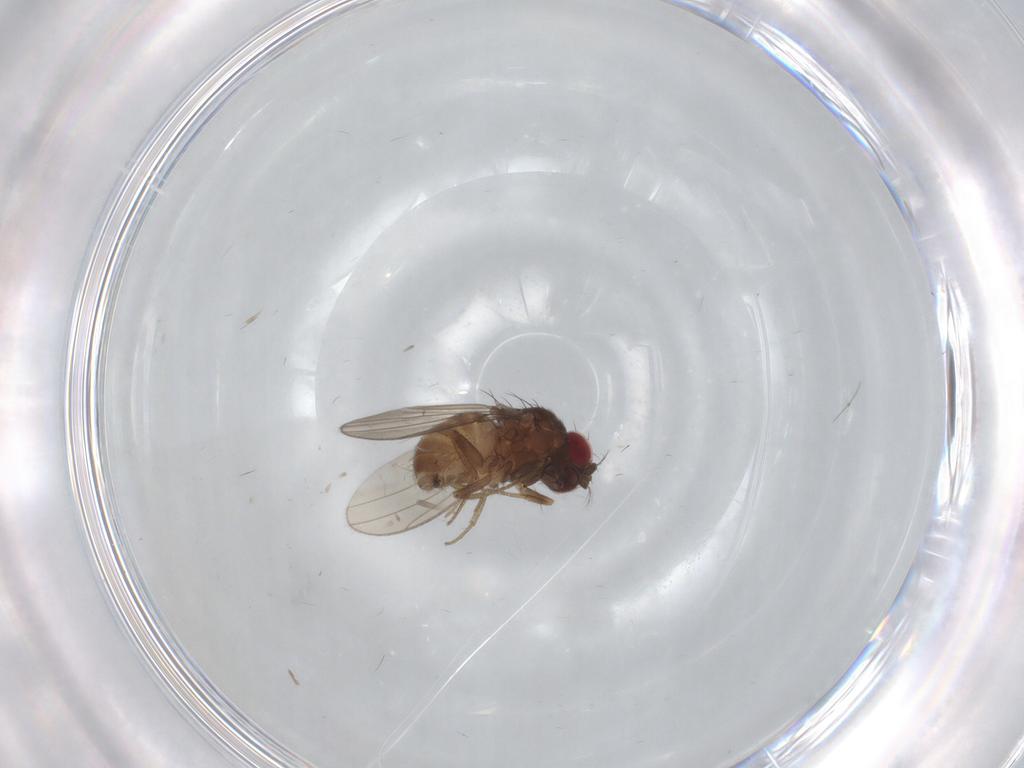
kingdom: Animalia
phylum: Arthropoda
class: Insecta
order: Diptera
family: Drosophilidae
